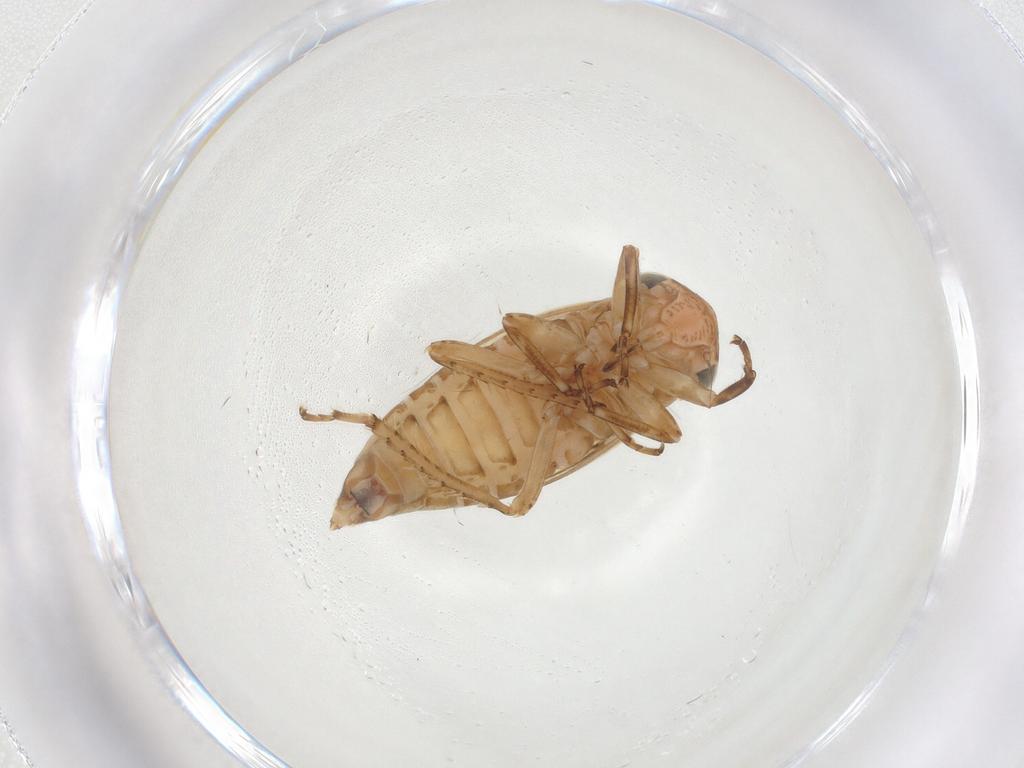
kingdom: Animalia
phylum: Arthropoda
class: Insecta
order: Hemiptera
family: Cicadellidae
